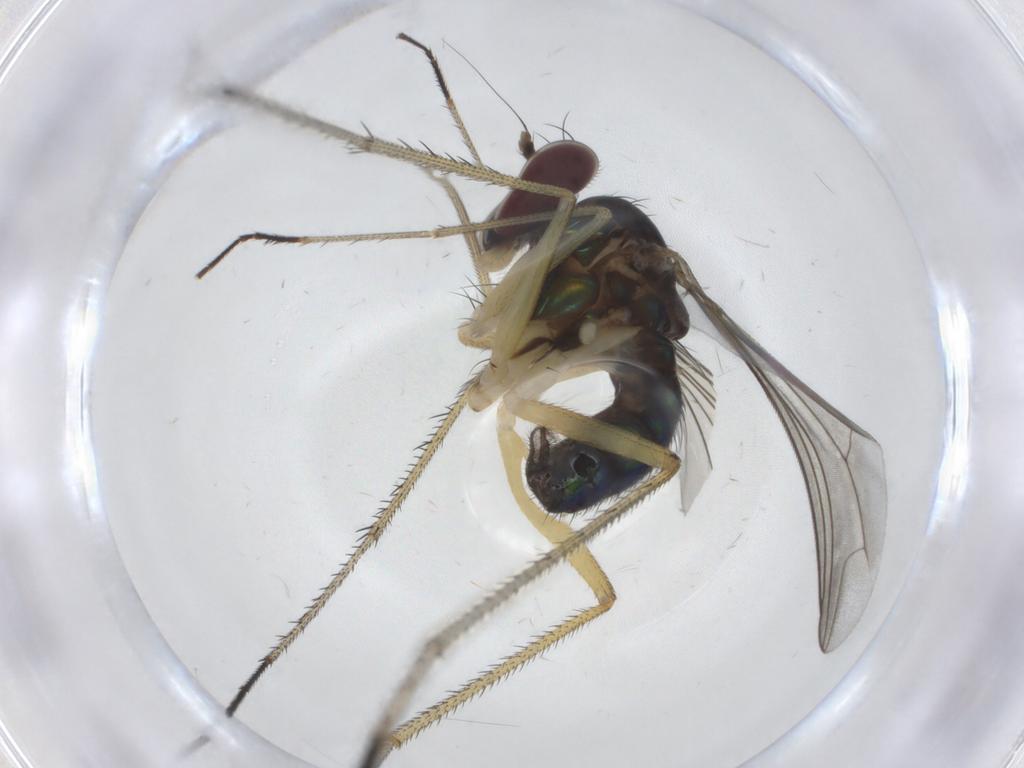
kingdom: Animalia
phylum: Arthropoda
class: Insecta
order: Diptera
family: Dolichopodidae
